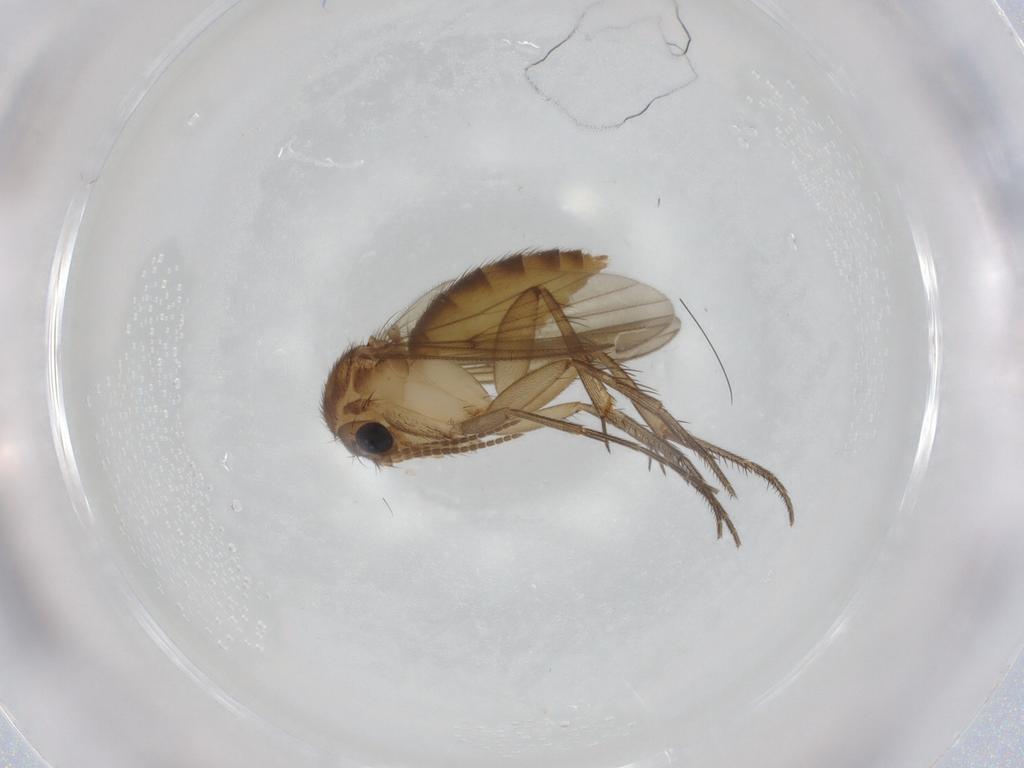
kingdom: Animalia
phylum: Arthropoda
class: Insecta
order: Diptera
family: Mycetophilidae
